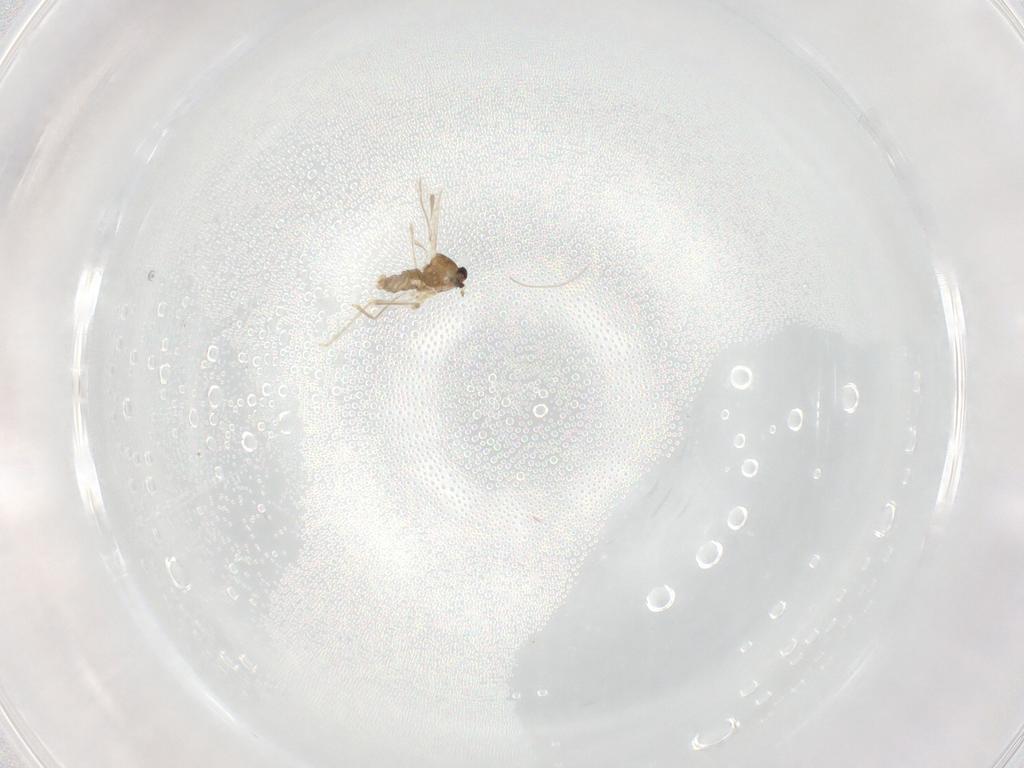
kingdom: Animalia
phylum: Arthropoda
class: Insecta
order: Diptera
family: Cecidomyiidae
